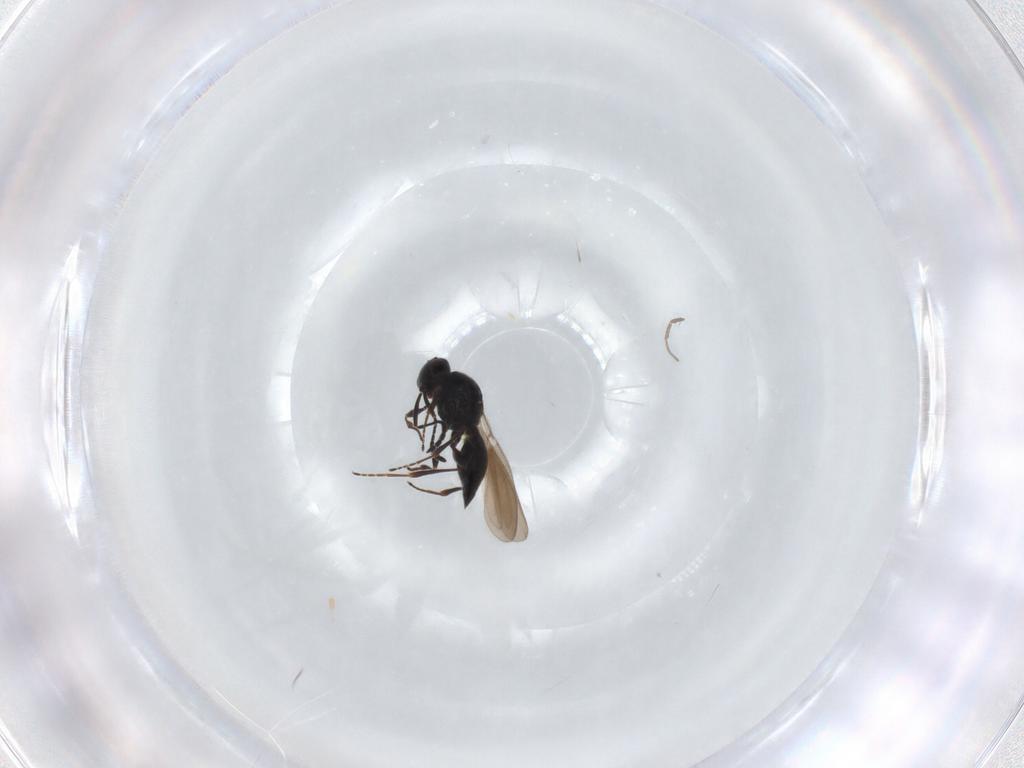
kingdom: Animalia
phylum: Arthropoda
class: Insecta
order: Hymenoptera
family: Platygastridae
